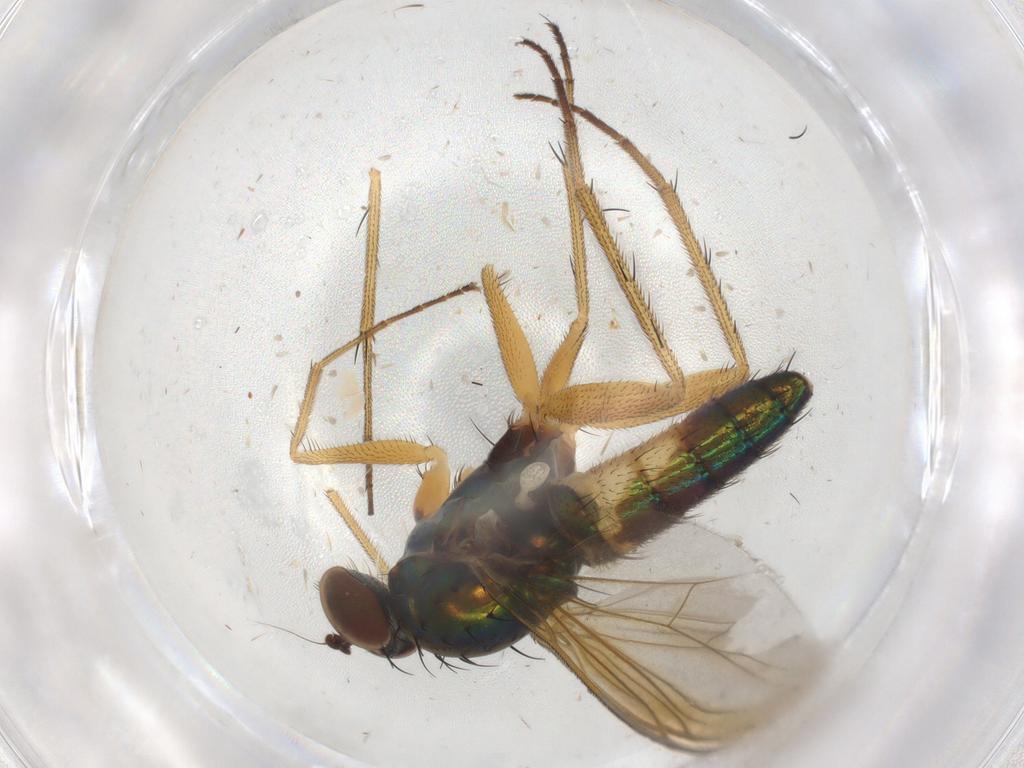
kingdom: Animalia
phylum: Arthropoda
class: Insecta
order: Diptera
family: Dolichopodidae
